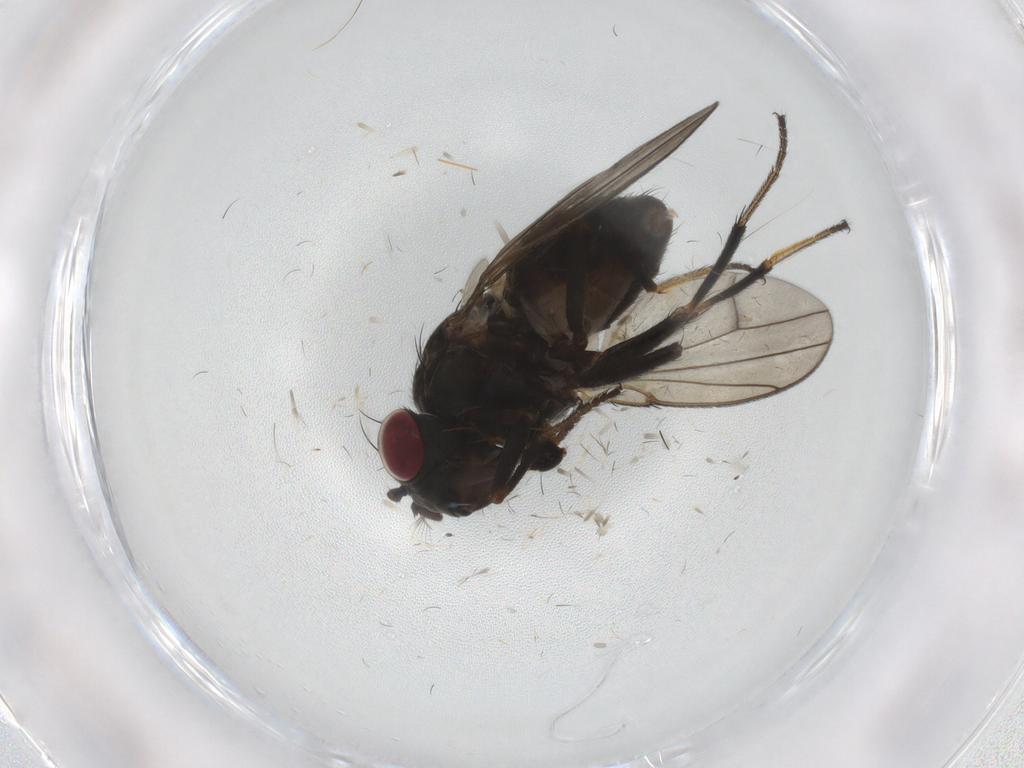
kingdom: Animalia
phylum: Arthropoda
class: Insecta
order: Diptera
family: Ephydridae
